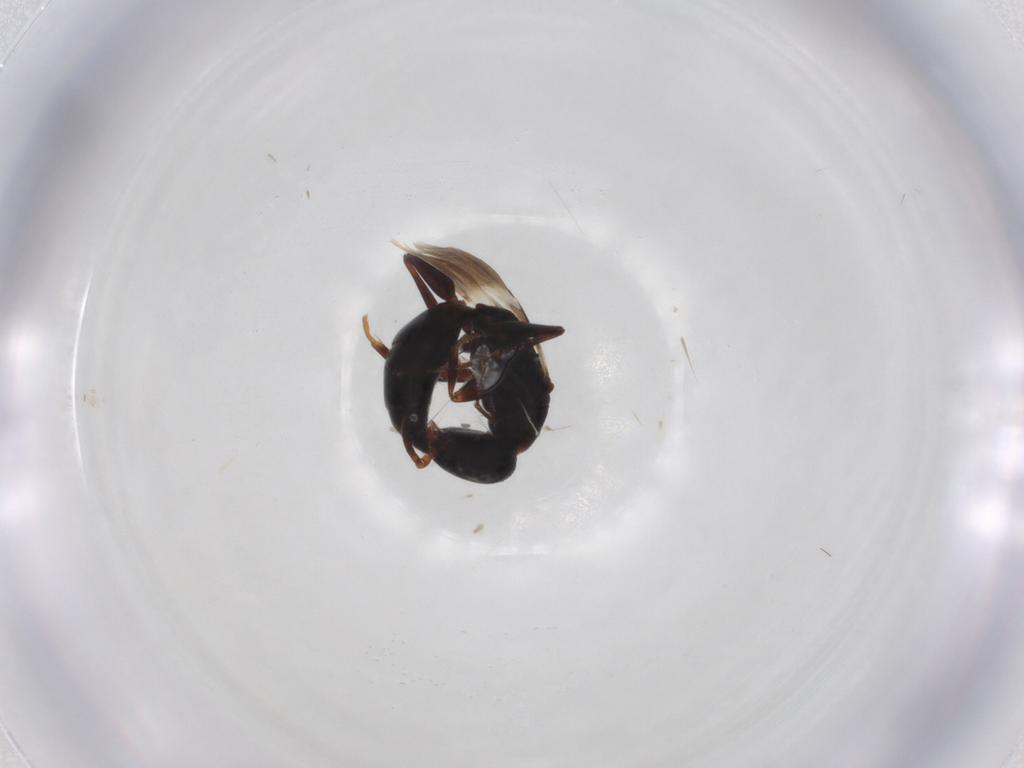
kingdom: Animalia
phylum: Arthropoda
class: Insecta
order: Hymenoptera
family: Bethylidae
